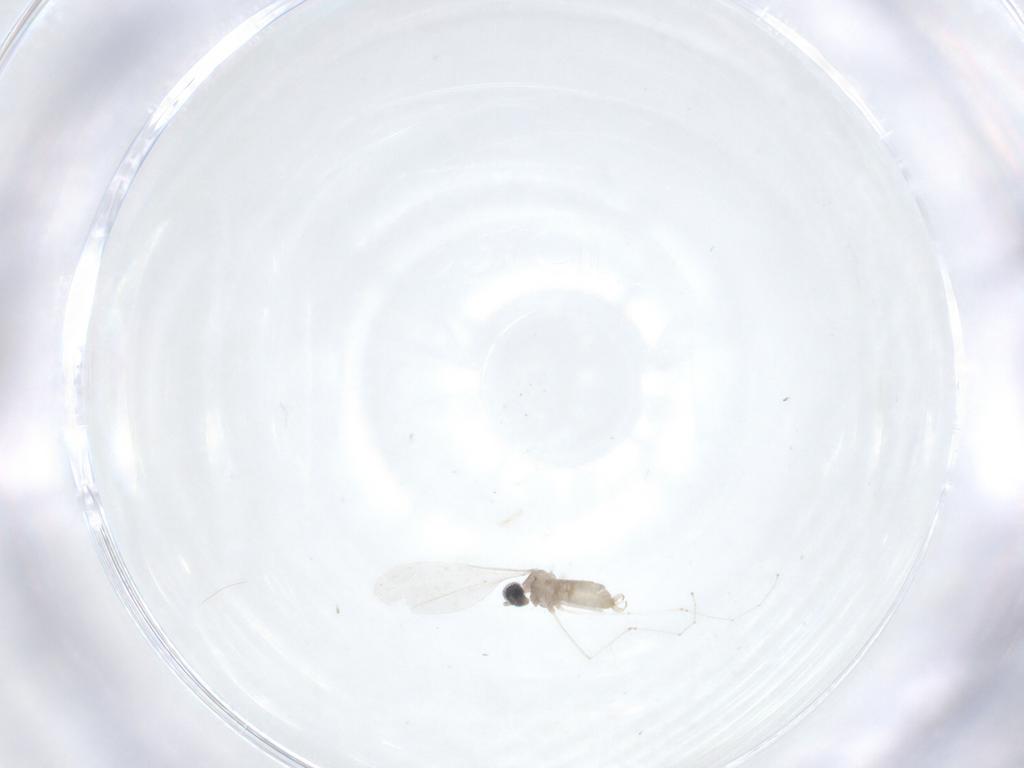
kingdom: Animalia
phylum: Arthropoda
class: Insecta
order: Diptera
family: Cecidomyiidae
